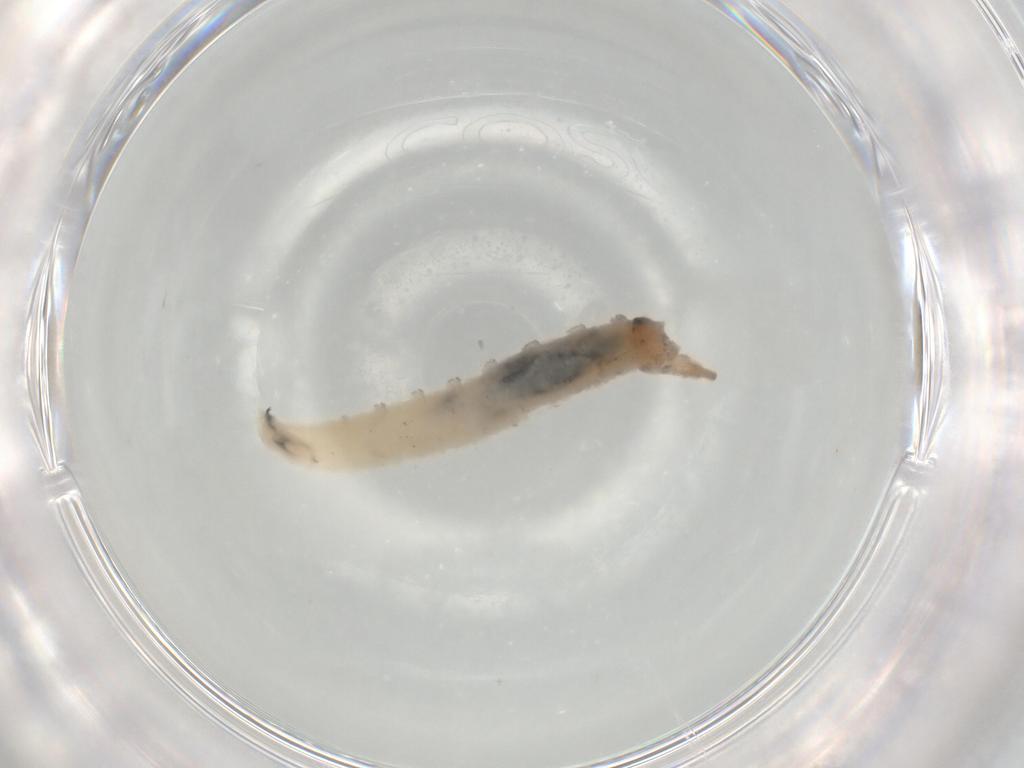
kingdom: Animalia
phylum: Arthropoda
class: Insecta
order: Diptera
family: Drosophilidae
